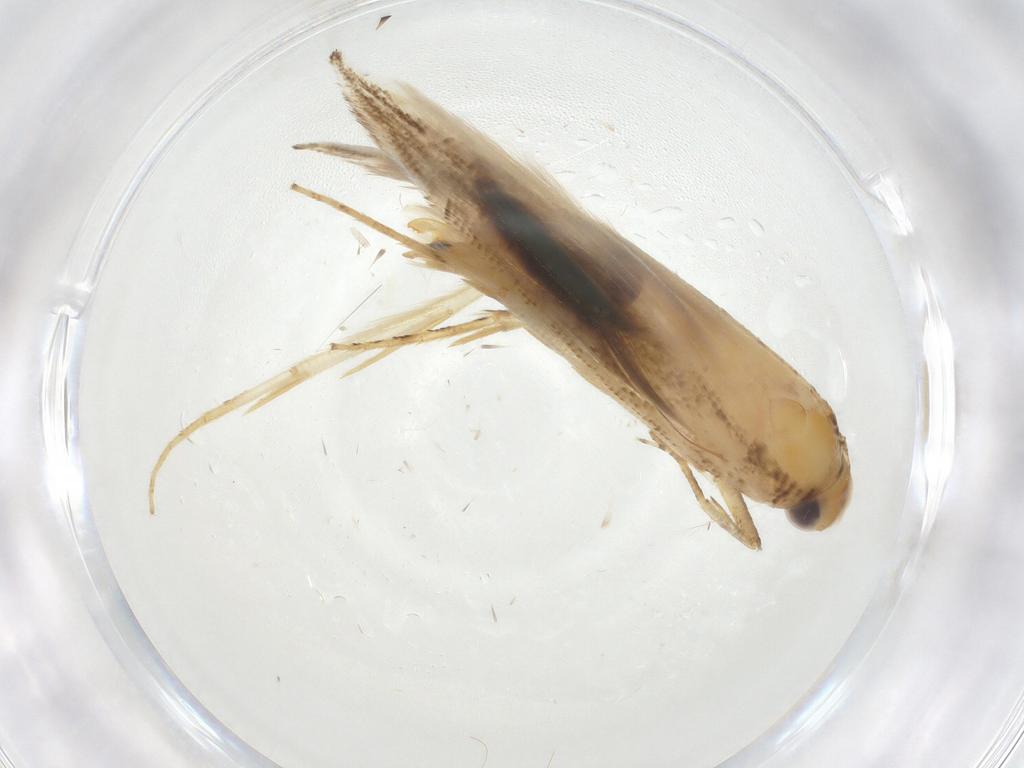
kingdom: Animalia
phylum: Arthropoda
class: Insecta
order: Lepidoptera
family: Momphidae
